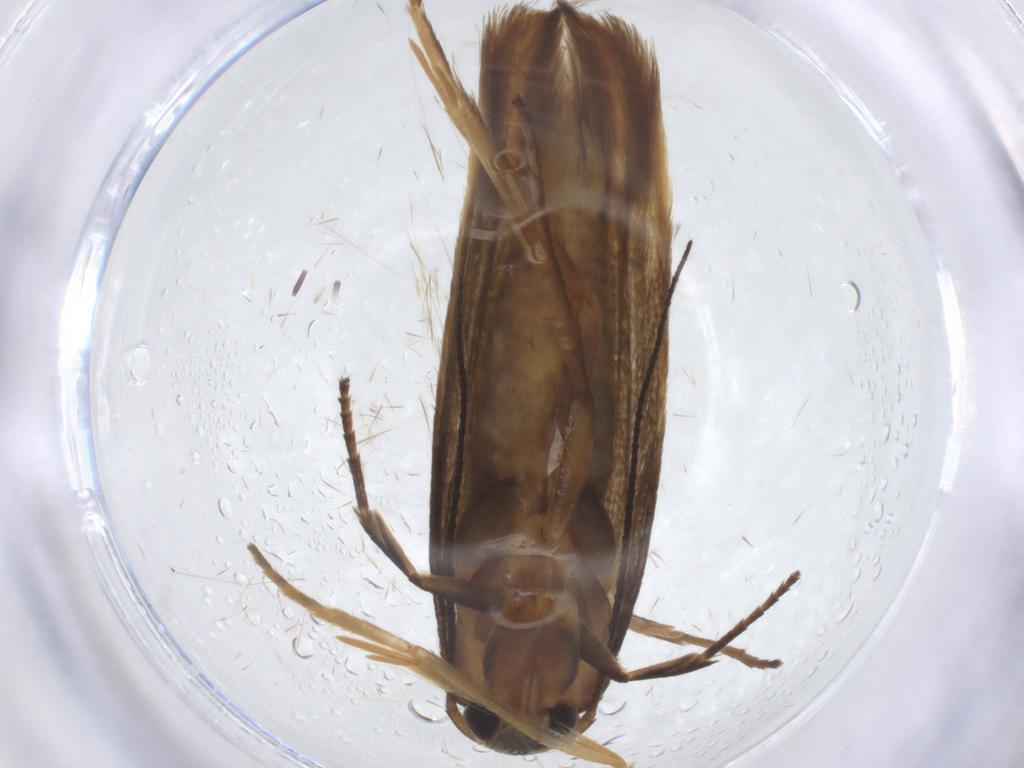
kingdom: Animalia
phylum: Arthropoda
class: Insecta
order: Lepidoptera
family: Stathmopodidae
